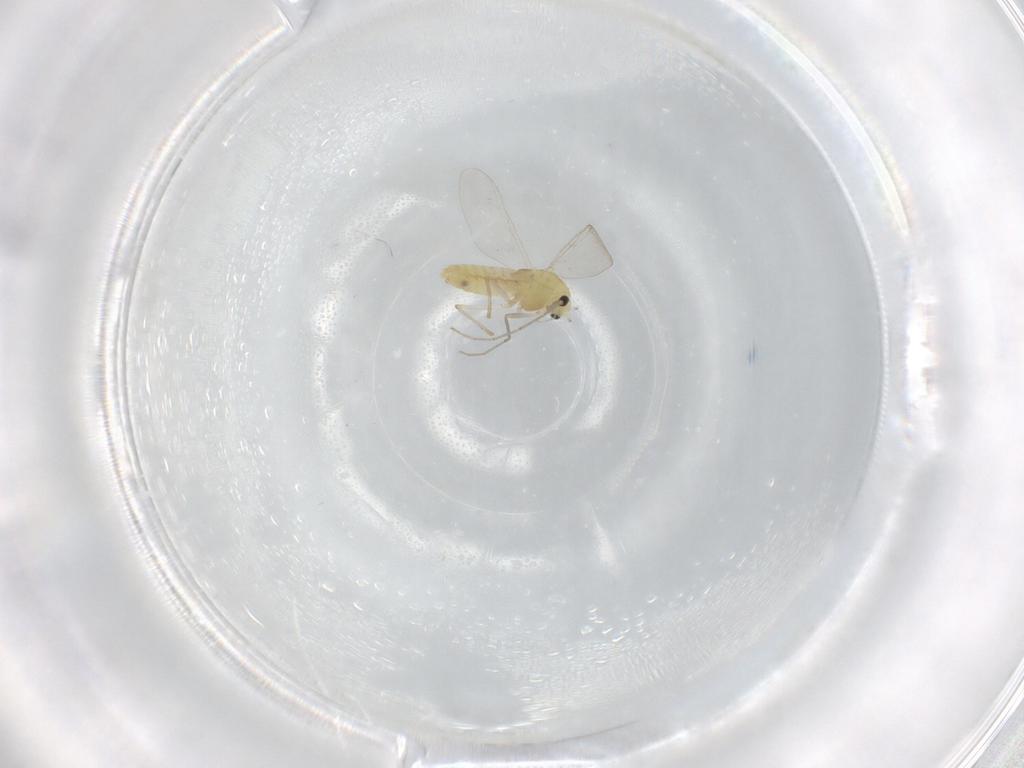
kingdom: Animalia
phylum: Arthropoda
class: Insecta
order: Diptera
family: Chironomidae
